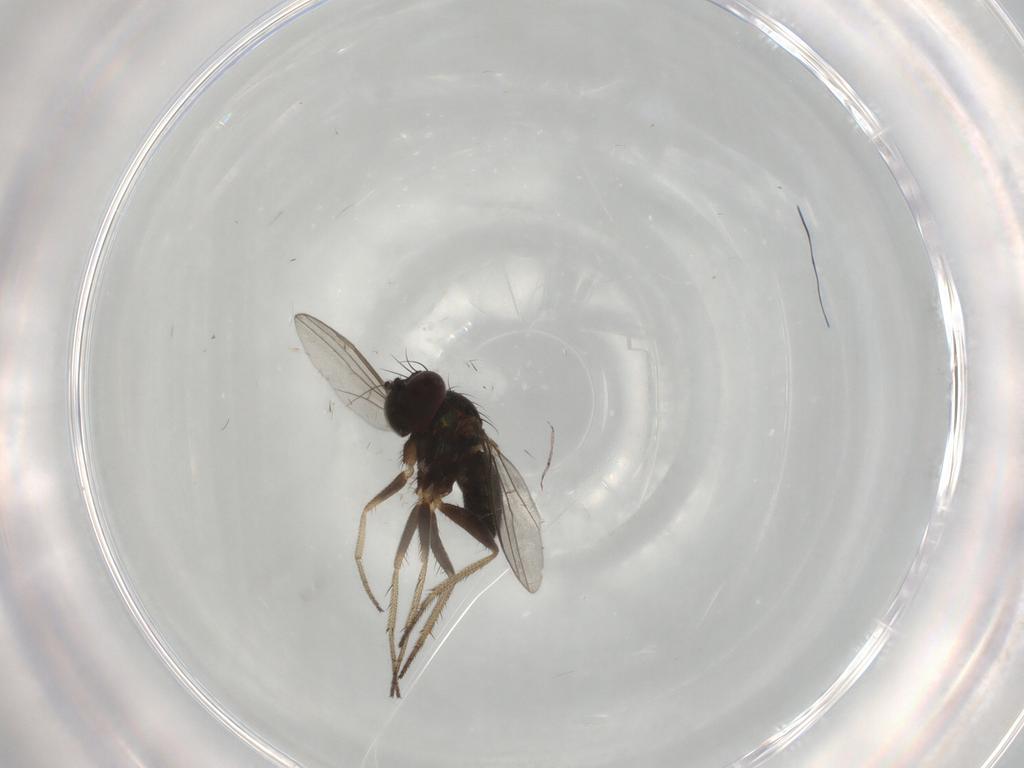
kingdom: Animalia
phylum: Arthropoda
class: Insecta
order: Diptera
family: Dolichopodidae
